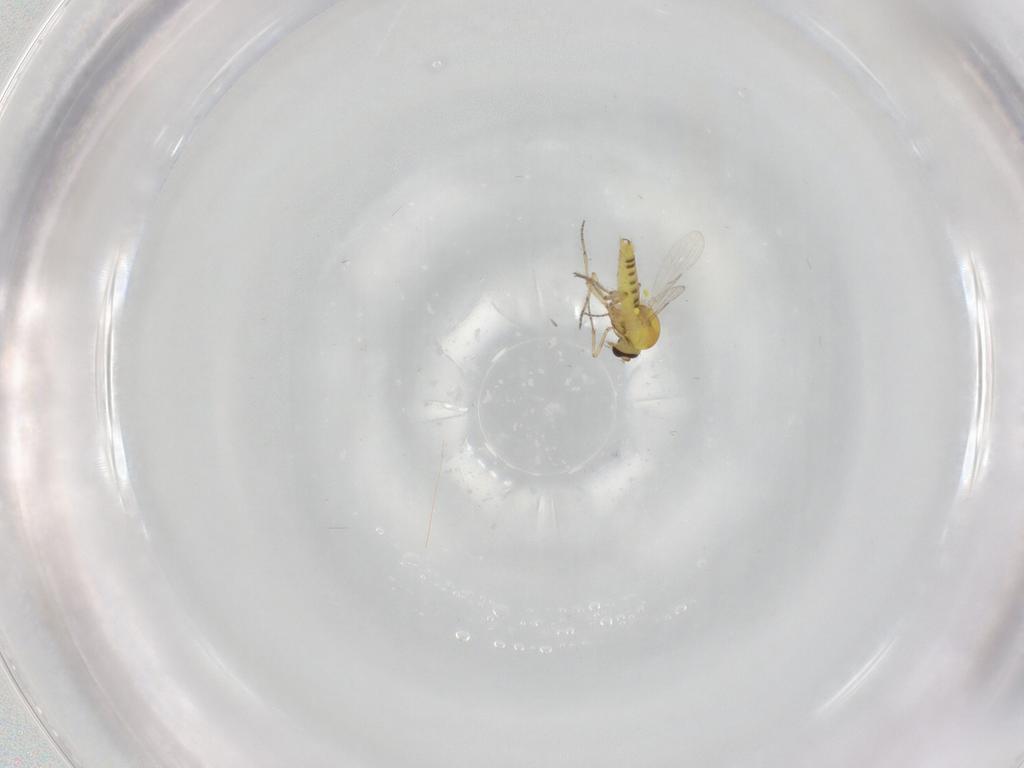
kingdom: Animalia
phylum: Arthropoda
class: Insecta
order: Diptera
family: Ceratopogonidae
